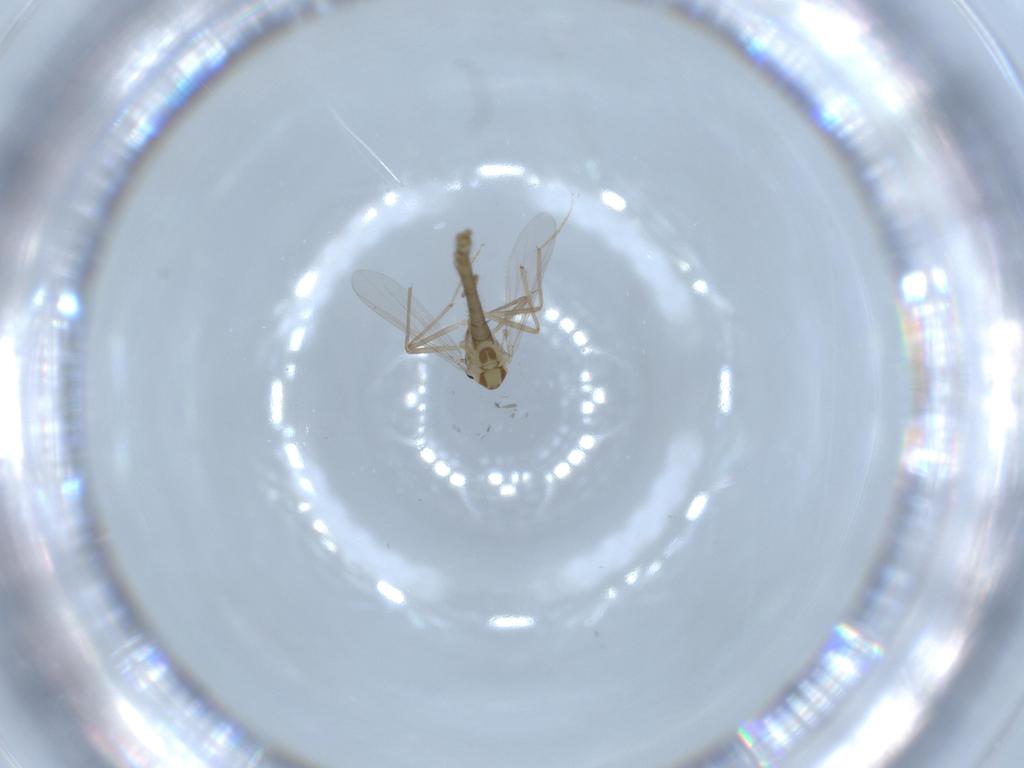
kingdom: Animalia
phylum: Arthropoda
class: Insecta
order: Diptera
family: Chironomidae
